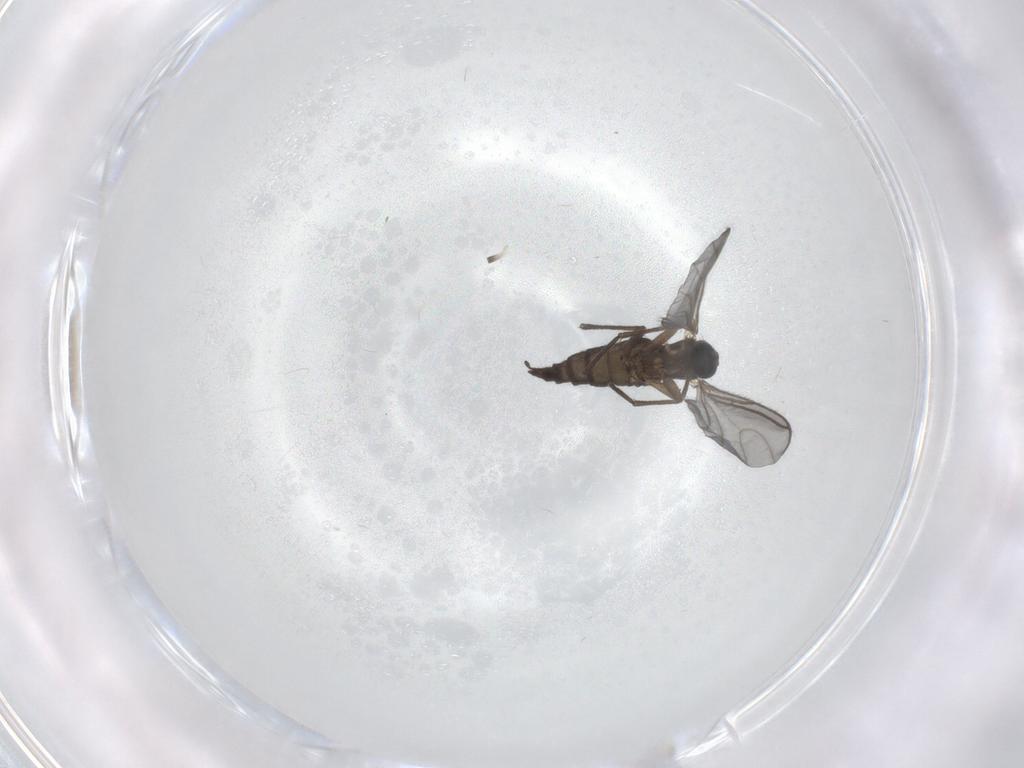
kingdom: Animalia
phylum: Arthropoda
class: Insecta
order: Diptera
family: Sciaridae
